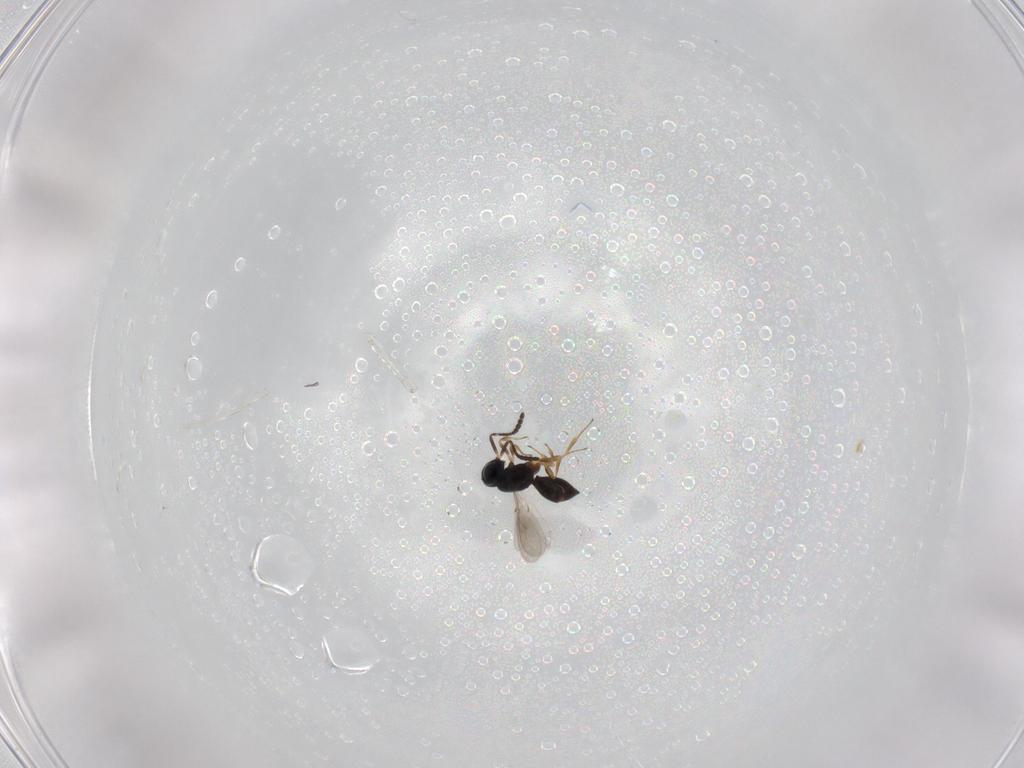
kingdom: Animalia
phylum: Arthropoda
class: Insecta
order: Hymenoptera
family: Scelionidae
